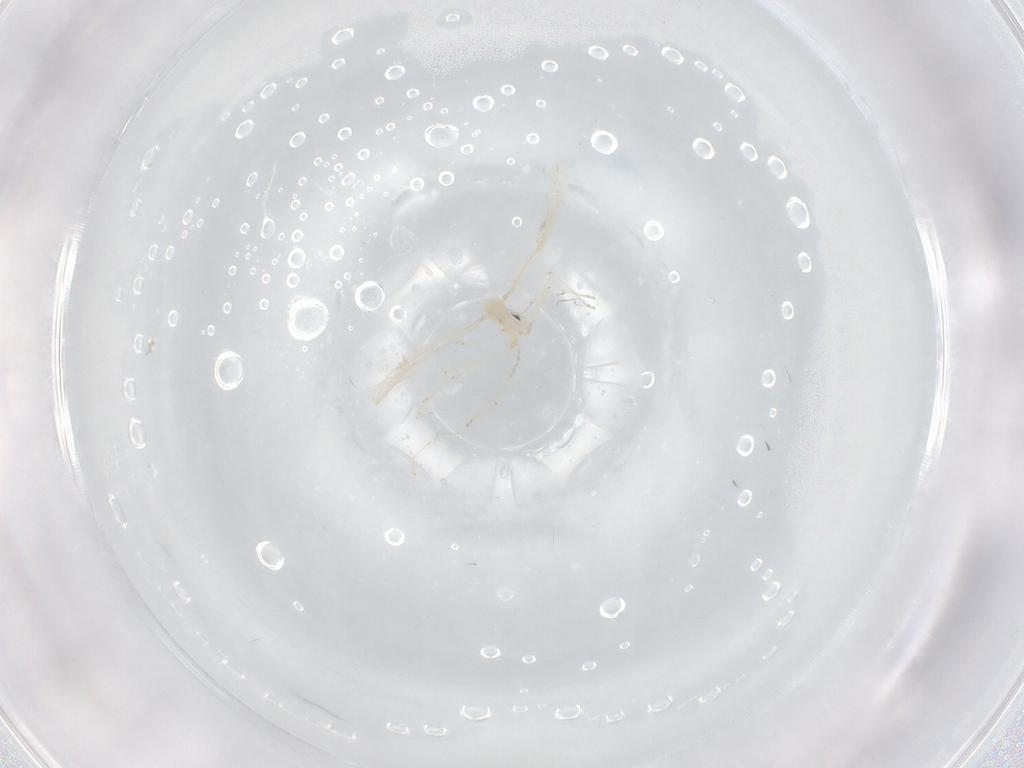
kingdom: Animalia
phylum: Arthropoda
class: Insecta
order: Diptera
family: Cecidomyiidae
